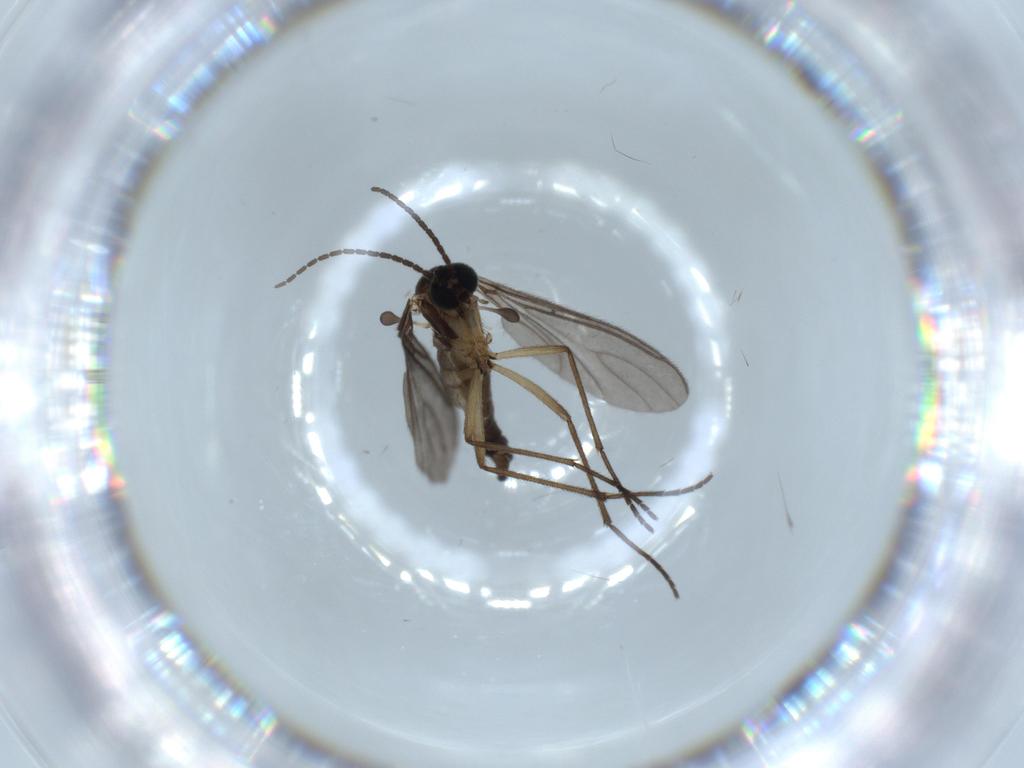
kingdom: Animalia
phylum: Arthropoda
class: Insecta
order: Diptera
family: Sciaridae
